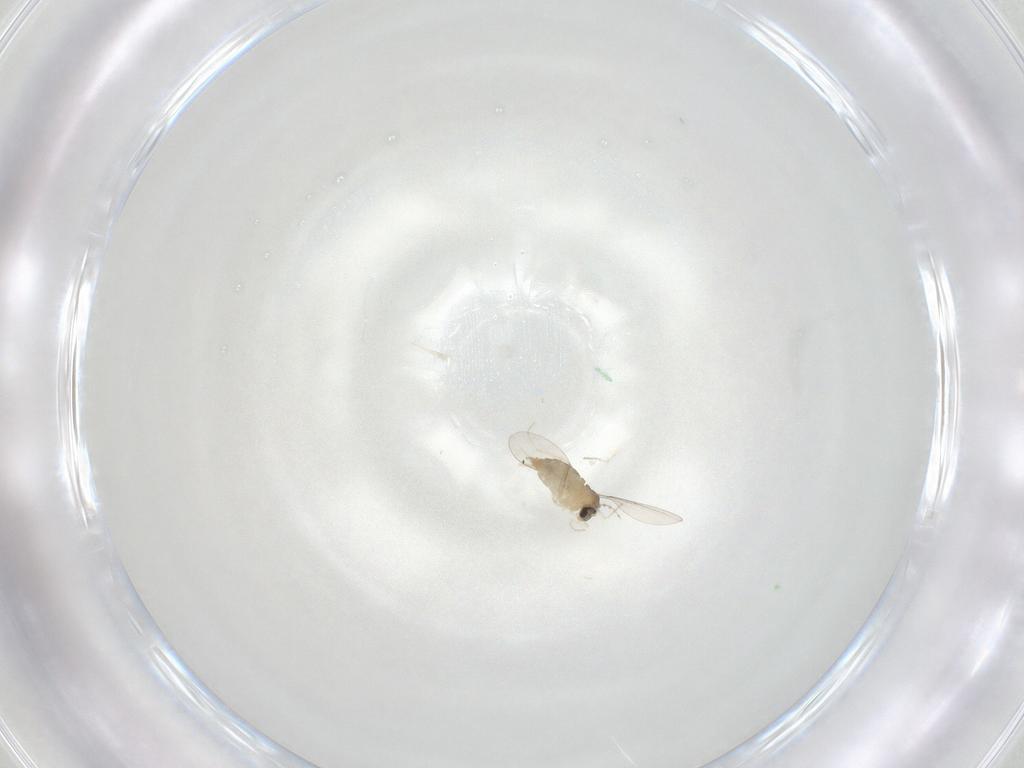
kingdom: Animalia
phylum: Arthropoda
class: Insecta
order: Diptera
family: Cecidomyiidae
